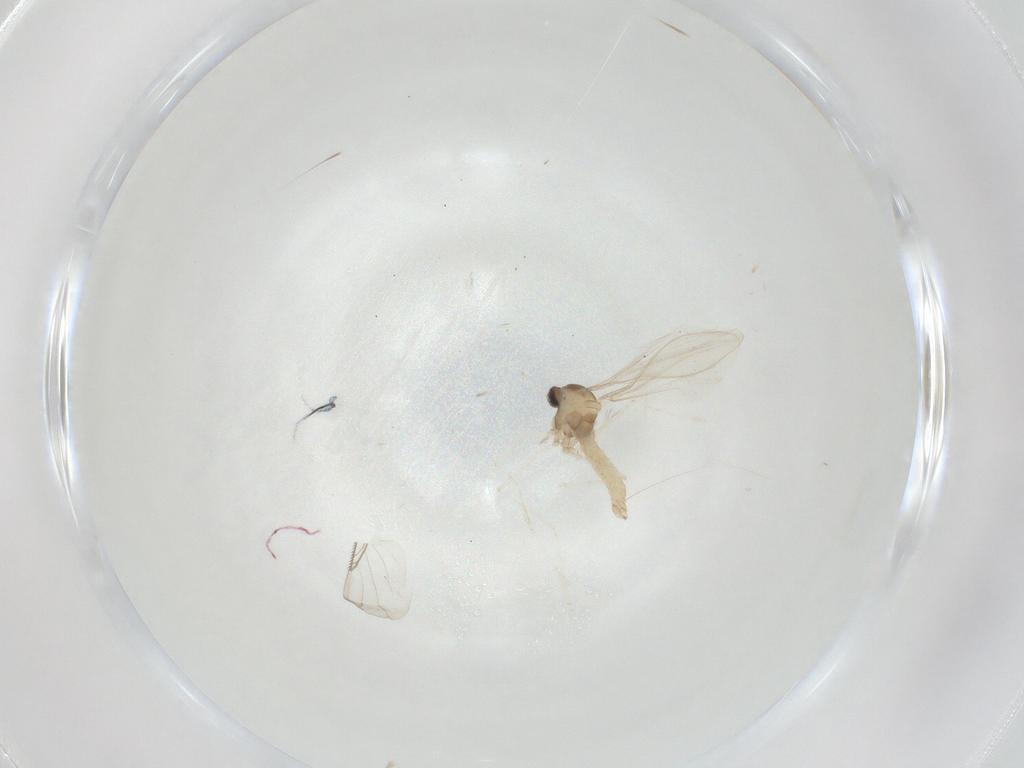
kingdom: Animalia
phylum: Arthropoda
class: Insecta
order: Diptera
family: Cecidomyiidae
